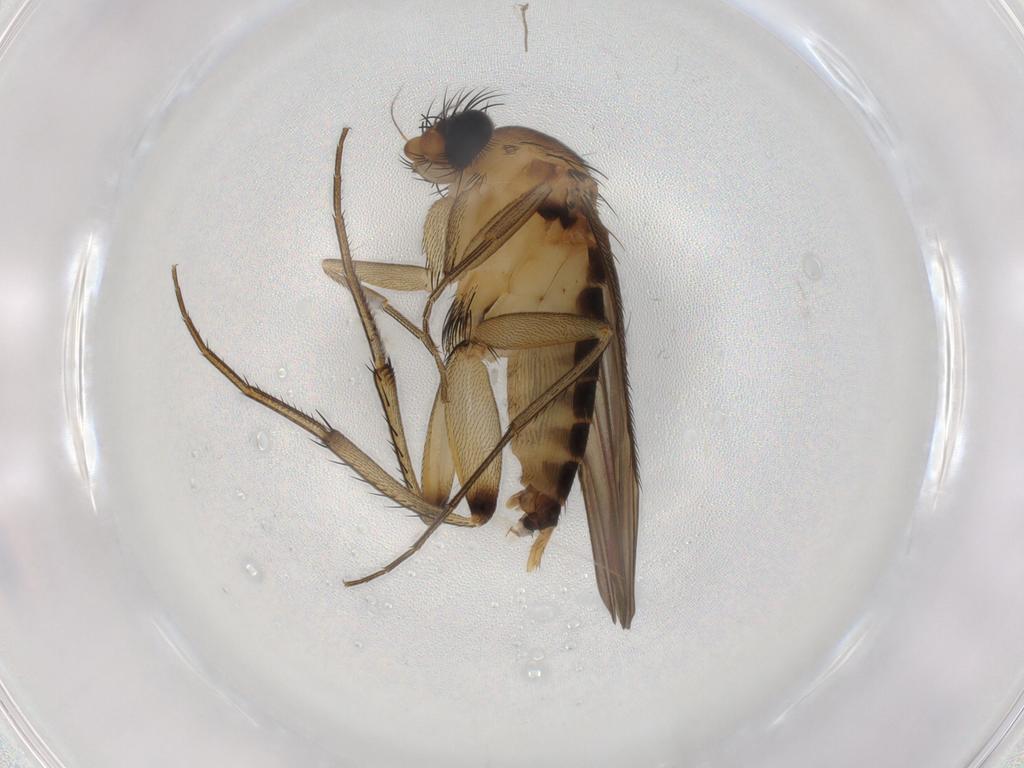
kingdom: Animalia
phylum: Arthropoda
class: Insecta
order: Diptera
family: Phoridae
